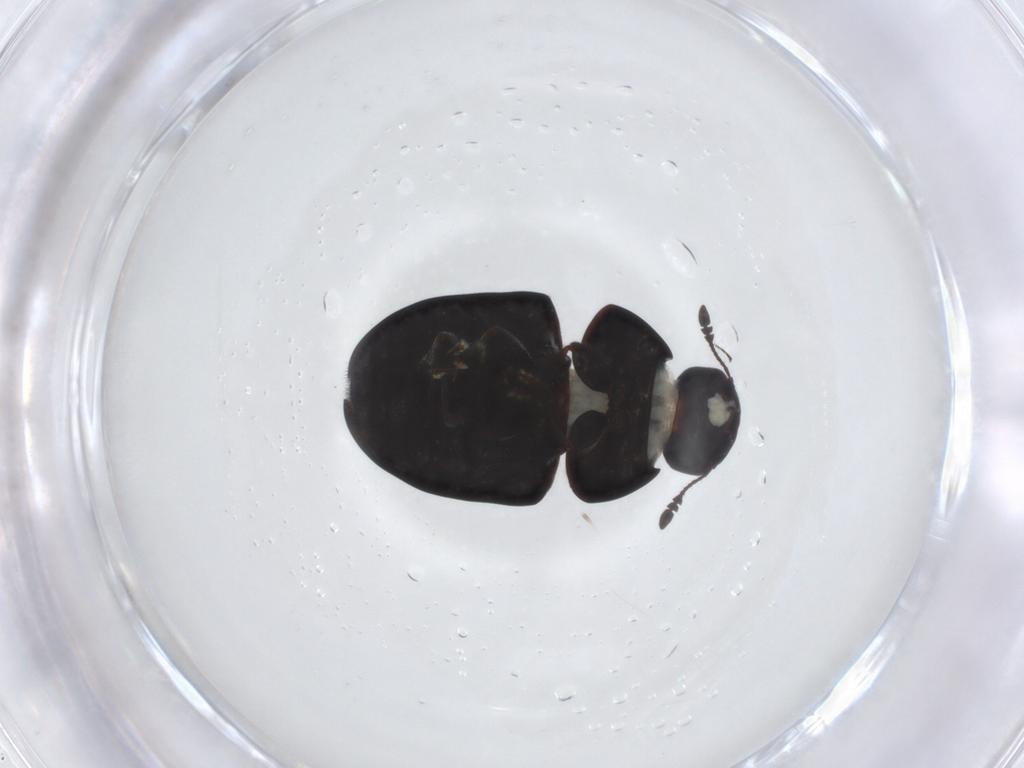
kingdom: Animalia
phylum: Arthropoda
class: Insecta
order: Coleoptera
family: Scraptiidae
